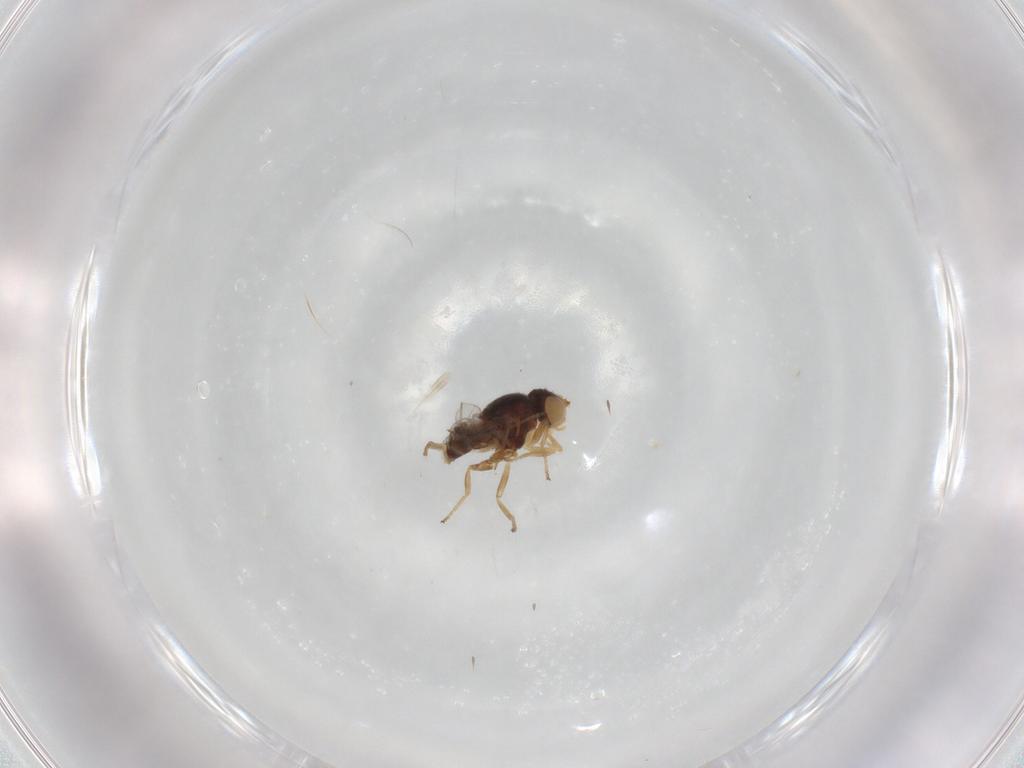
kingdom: Animalia
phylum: Arthropoda
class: Insecta
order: Diptera
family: Chloropidae
